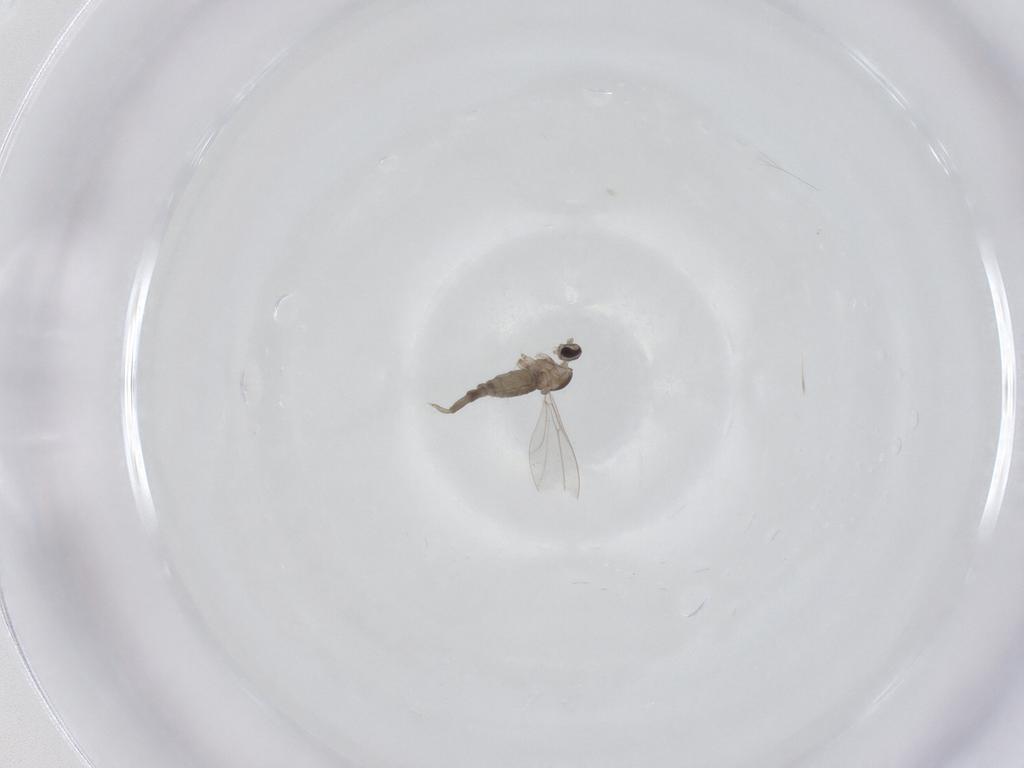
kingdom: Animalia
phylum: Arthropoda
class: Insecta
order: Diptera
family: Cecidomyiidae
